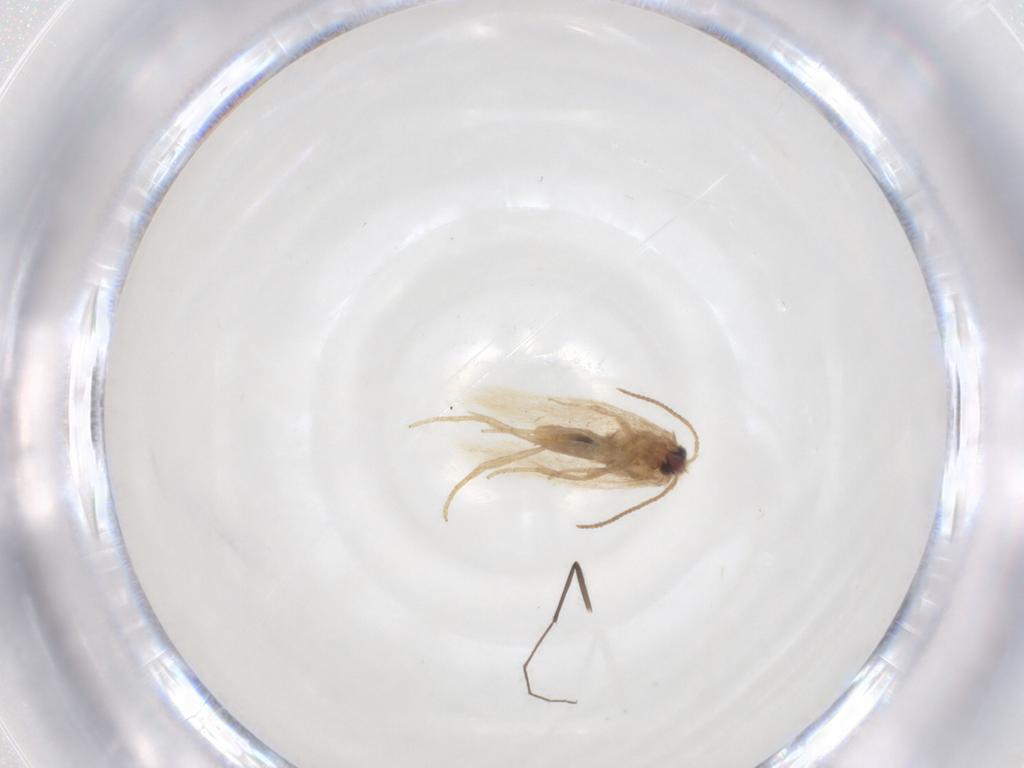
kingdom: Animalia
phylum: Arthropoda
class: Insecta
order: Lepidoptera
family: Nepticulidae
